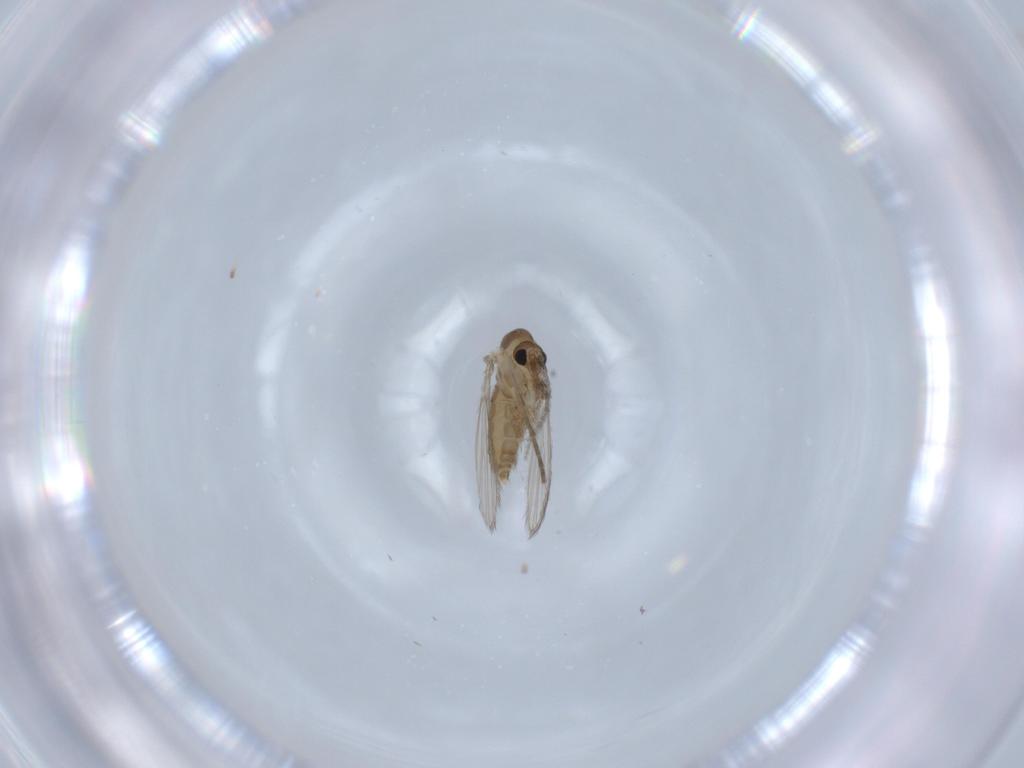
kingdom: Animalia
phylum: Arthropoda
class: Insecta
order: Diptera
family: Psychodidae
